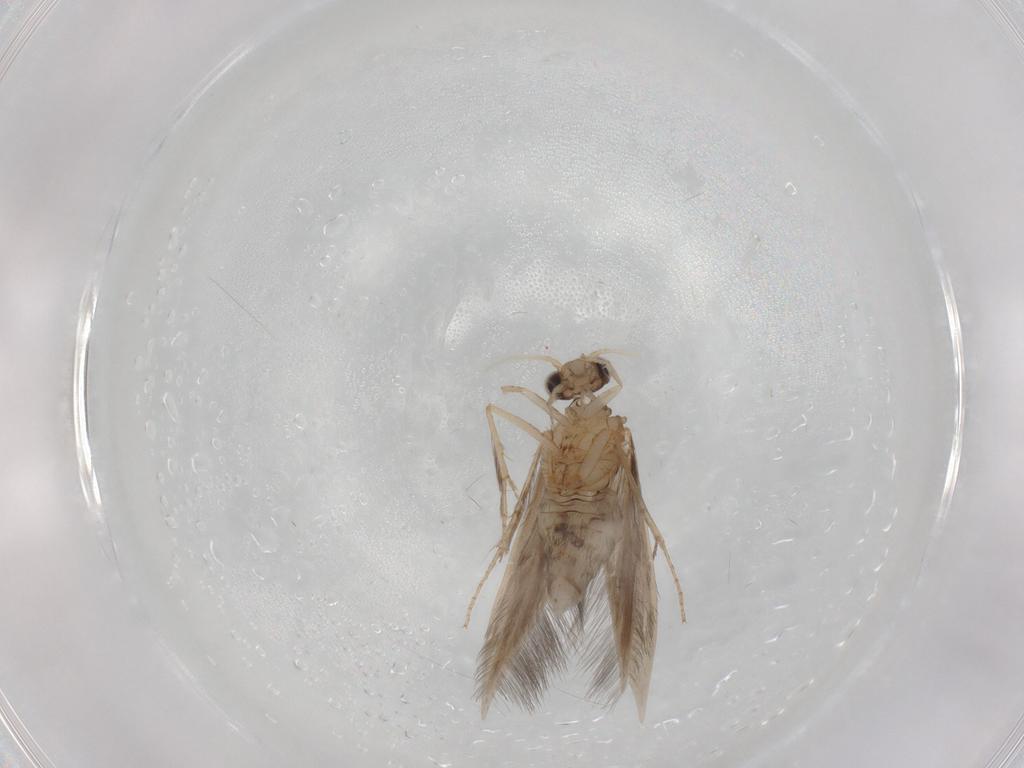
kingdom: Animalia
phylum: Arthropoda
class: Insecta
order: Trichoptera
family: Hydroptilidae
